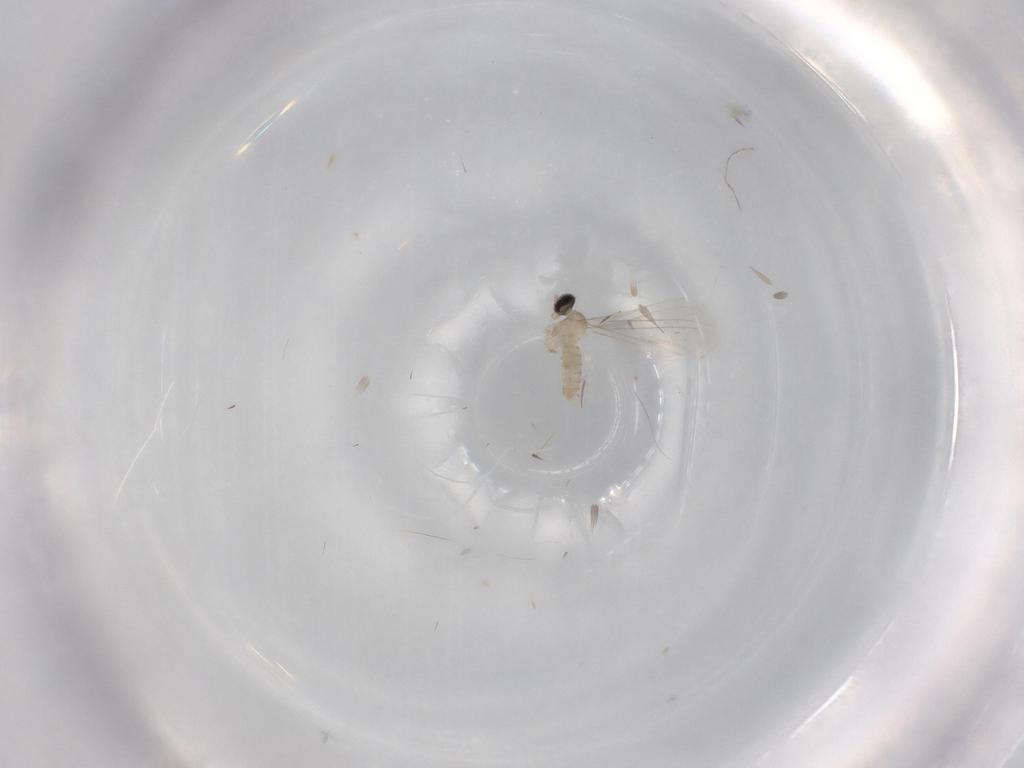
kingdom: Animalia
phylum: Arthropoda
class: Insecta
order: Diptera
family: Cecidomyiidae
